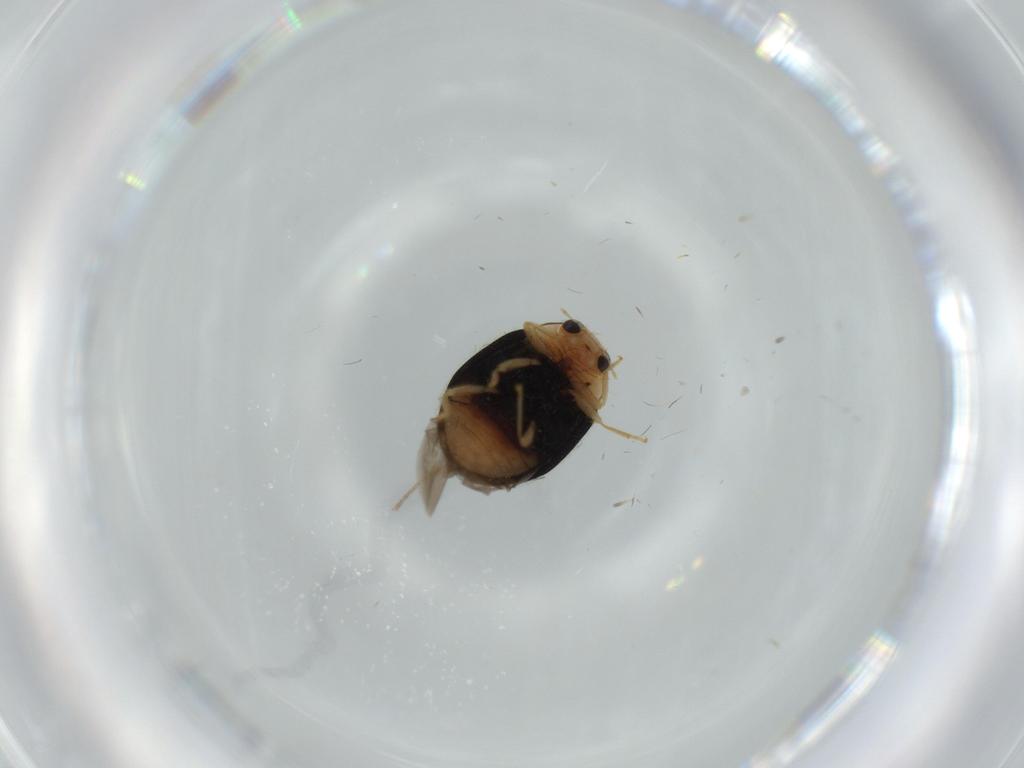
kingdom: Animalia
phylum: Arthropoda
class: Insecta
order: Coleoptera
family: Coccinellidae
